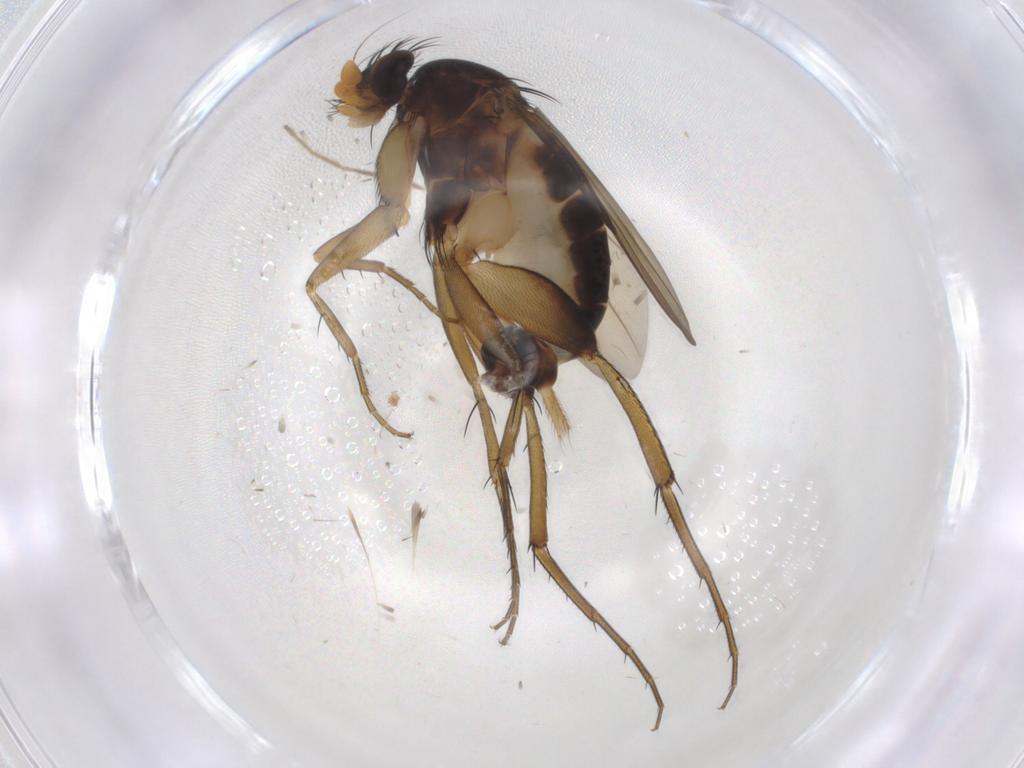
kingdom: Animalia
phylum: Arthropoda
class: Insecta
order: Diptera
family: Phoridae
